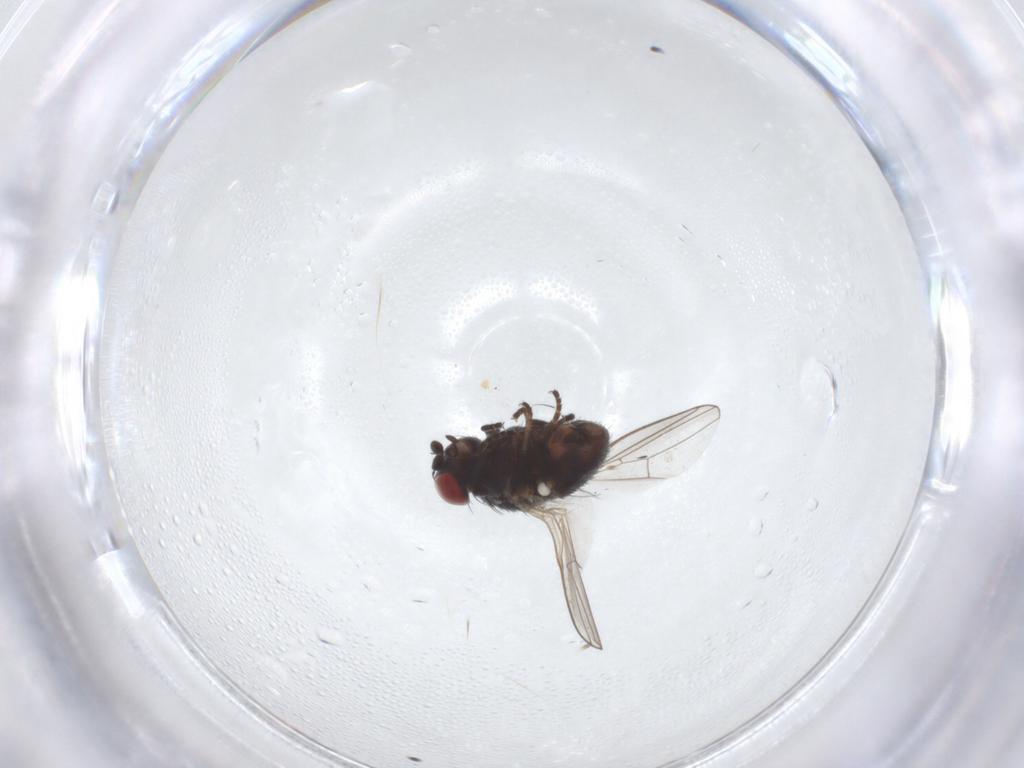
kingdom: Animalia
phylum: Arthropoda
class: Insecta
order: Diptera
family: Chamaemyiidae
